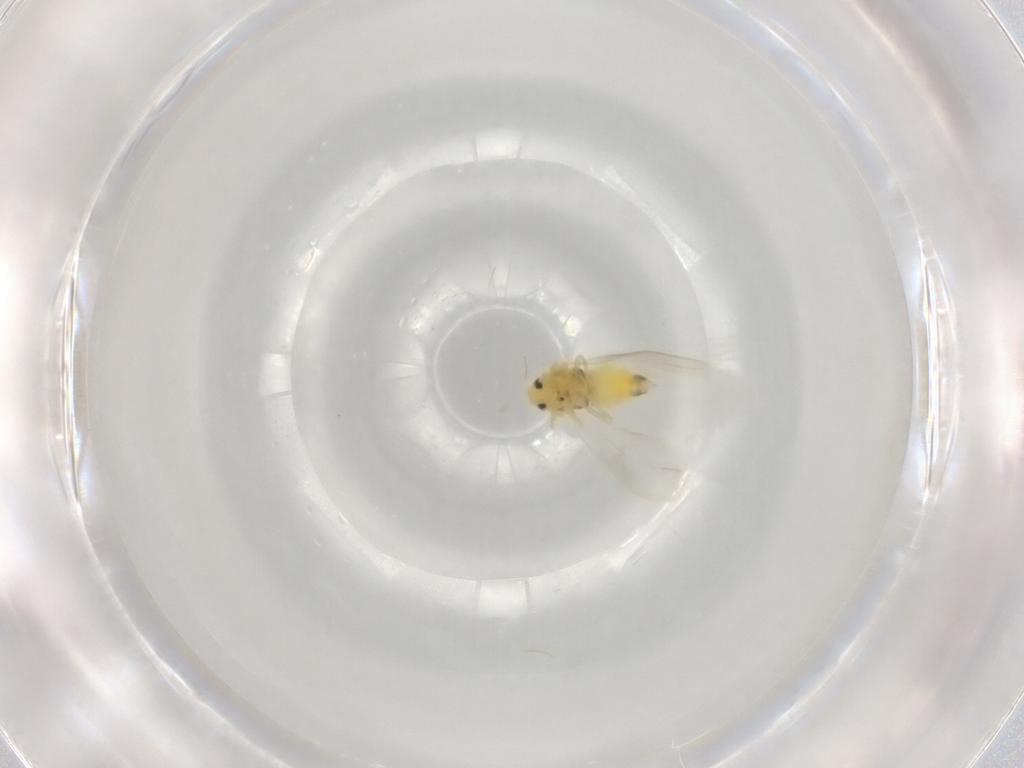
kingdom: Animalia
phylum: Arthropoda
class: Insecta
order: Hemiptera
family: Aleyrodidae
